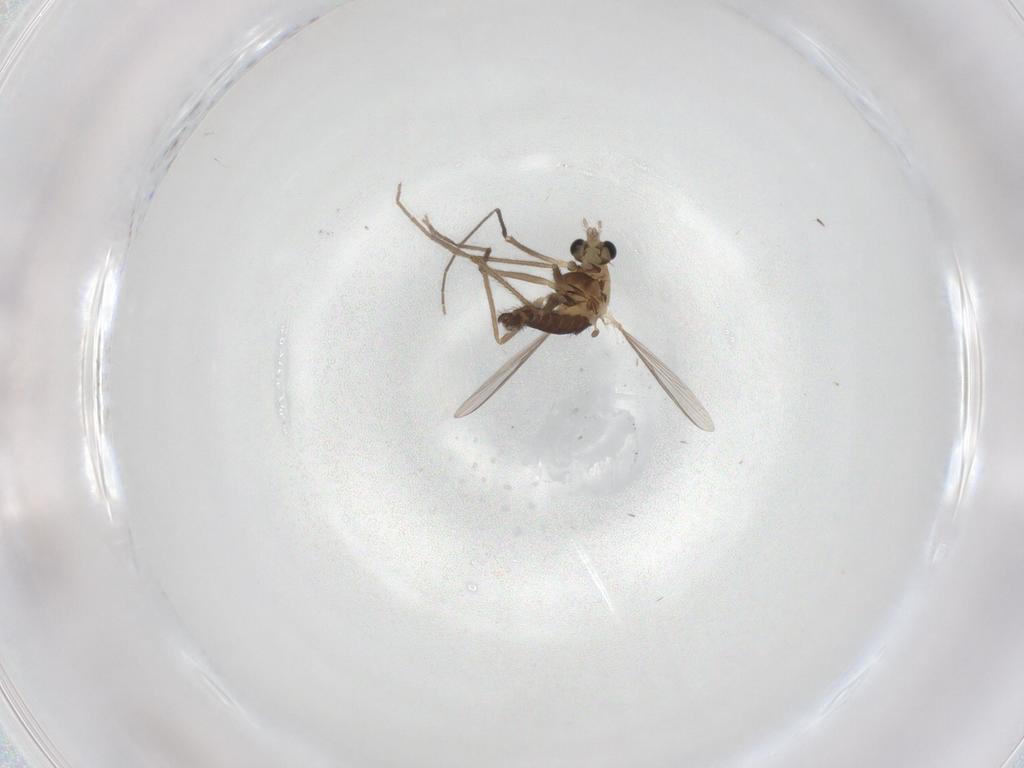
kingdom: Animalia
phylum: Arthropoda
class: Insecta
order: Diptera
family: Chironomidae
